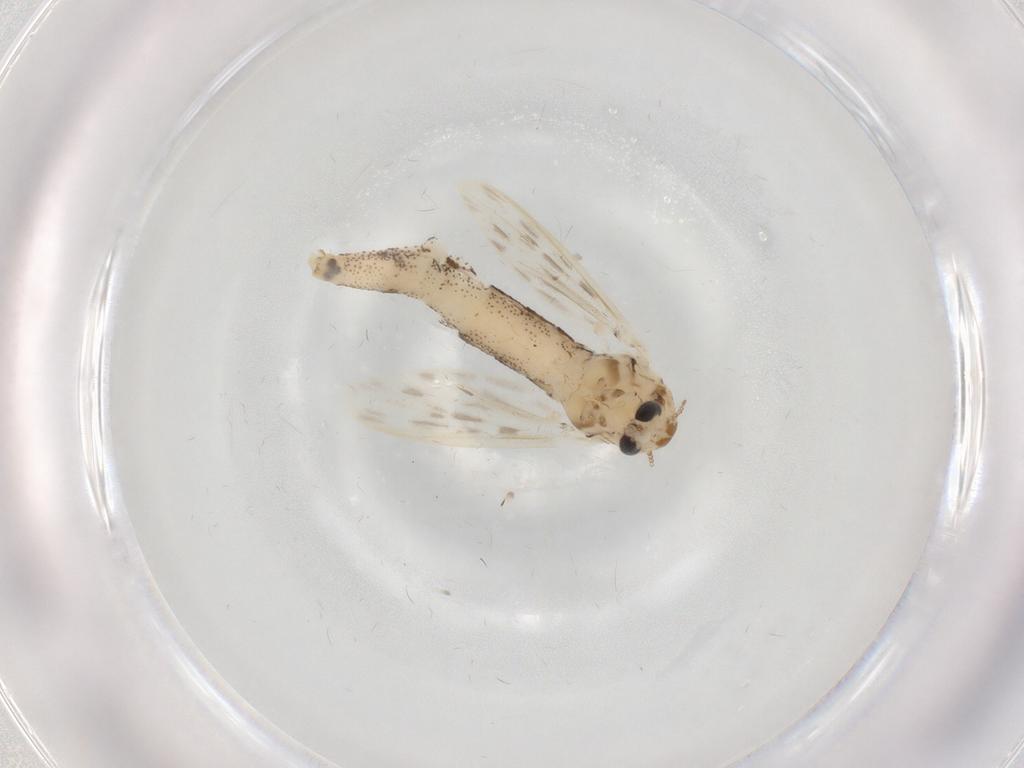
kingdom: Animalia
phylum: Arthropoda
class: Insecta
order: Diptera
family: Chaoboridae
